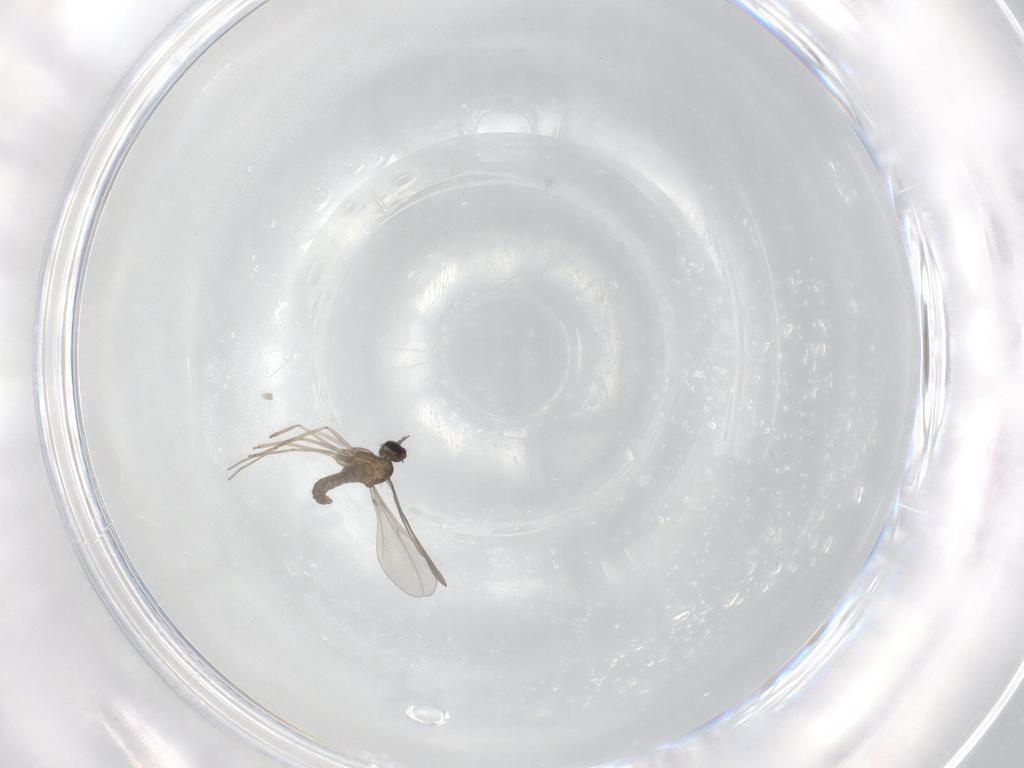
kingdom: Animalia
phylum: Arthropoda
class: Insecta
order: Diptera
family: Cecidomyiidae
